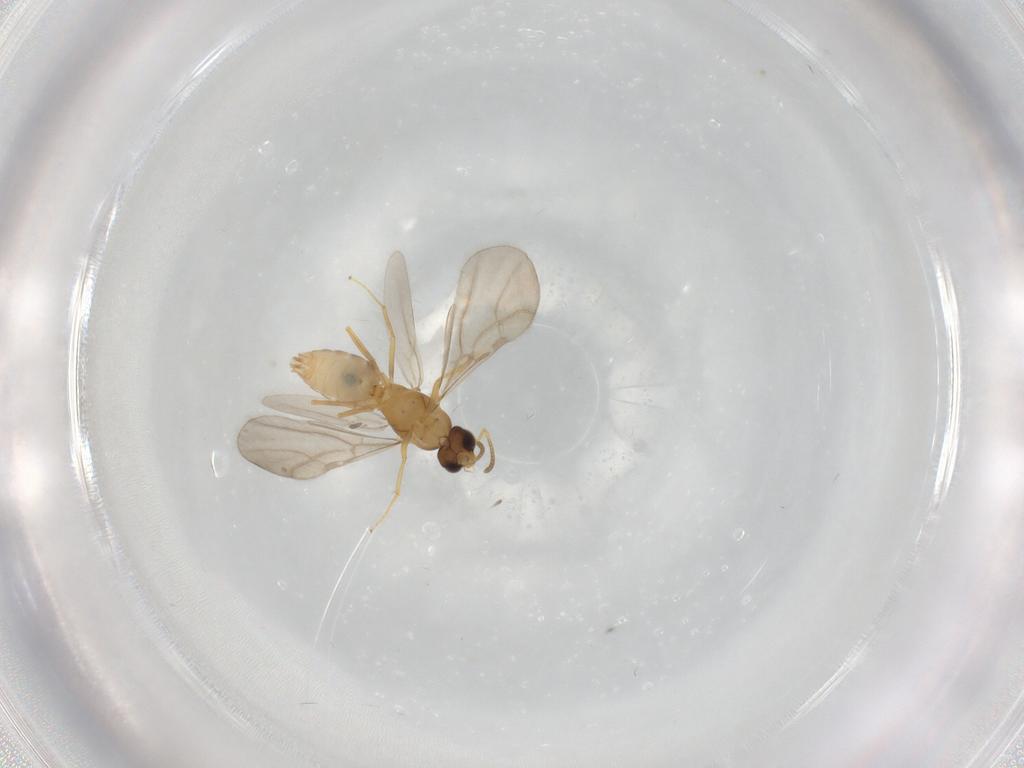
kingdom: Animalia
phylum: Arthropoda
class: Insecta
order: Hymenoptera
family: Formicidae
